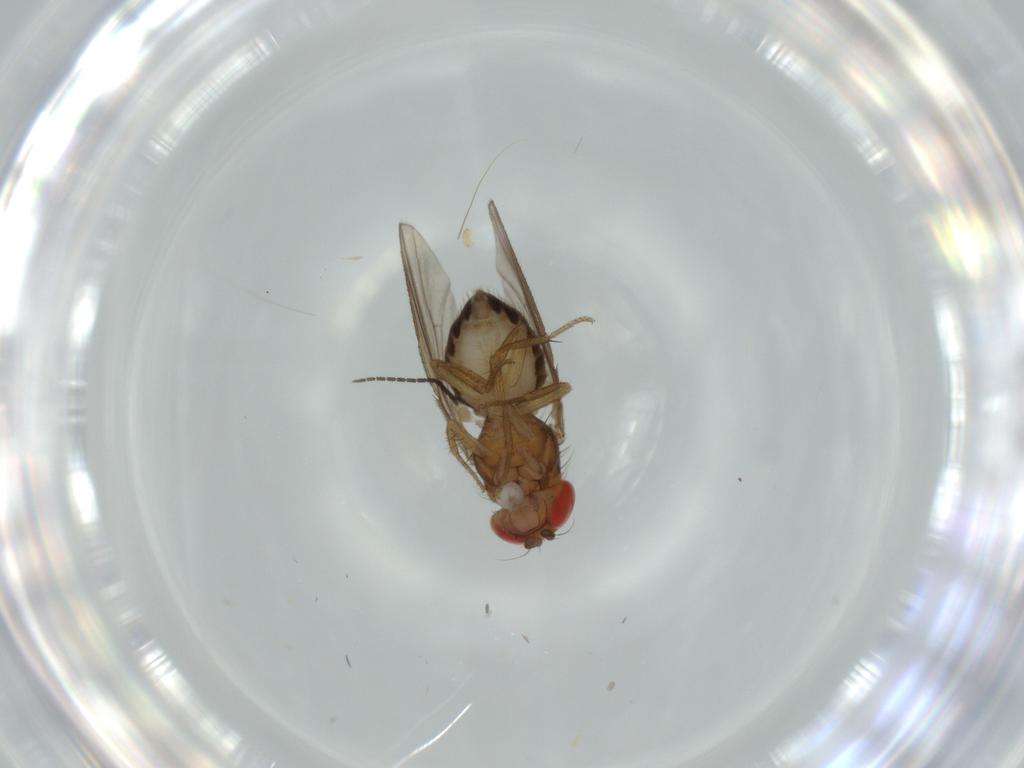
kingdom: Animalia
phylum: Arthropoda
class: Insecta
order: Diptera
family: Drosophilidae
